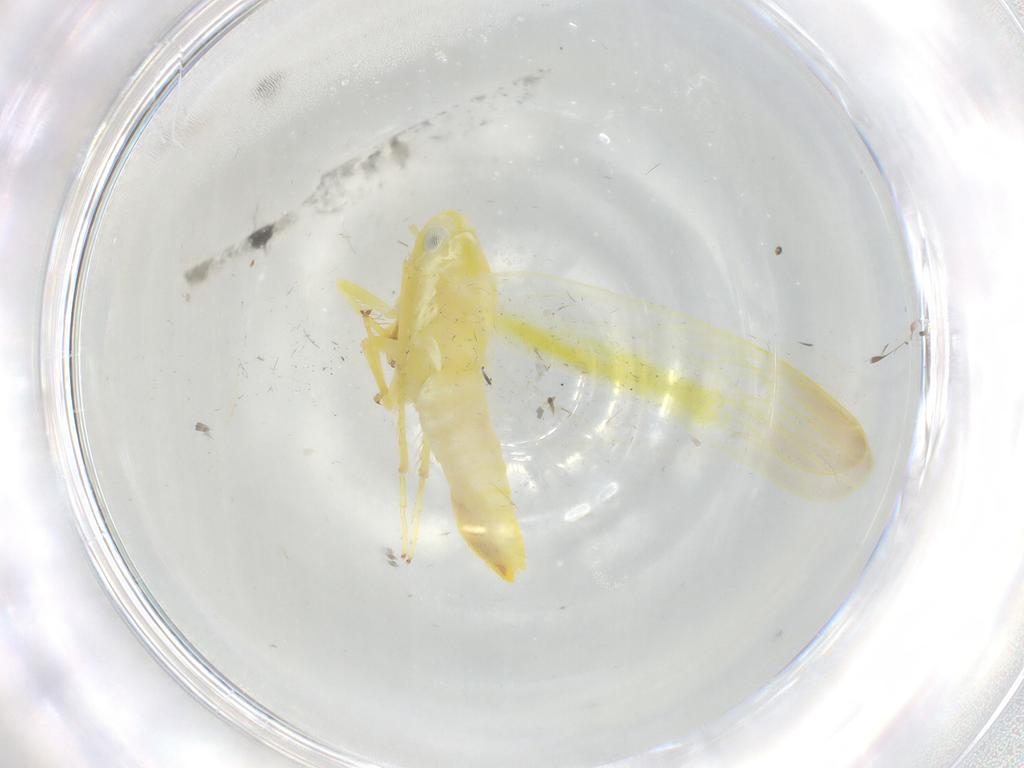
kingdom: Animalia
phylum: Arthropoda
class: Insecta
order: Hemiptera
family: Cicadellidae
